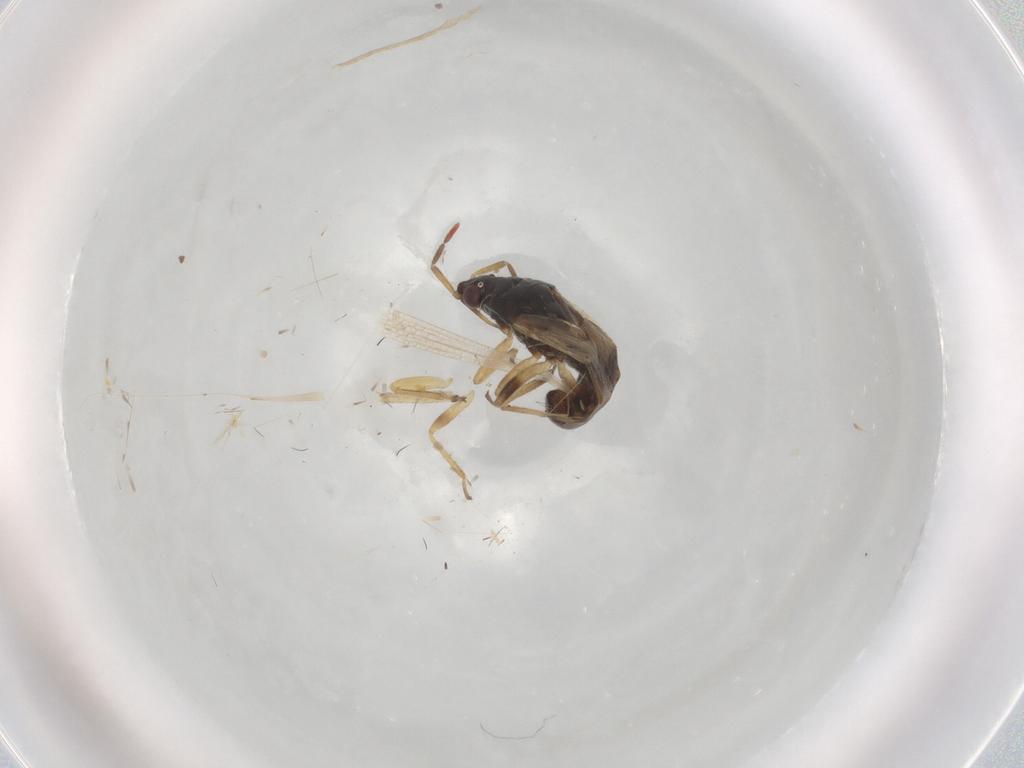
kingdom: Animalia
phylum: Arthropoda
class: Insecta
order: Hemiptera
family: Anthocoridae
